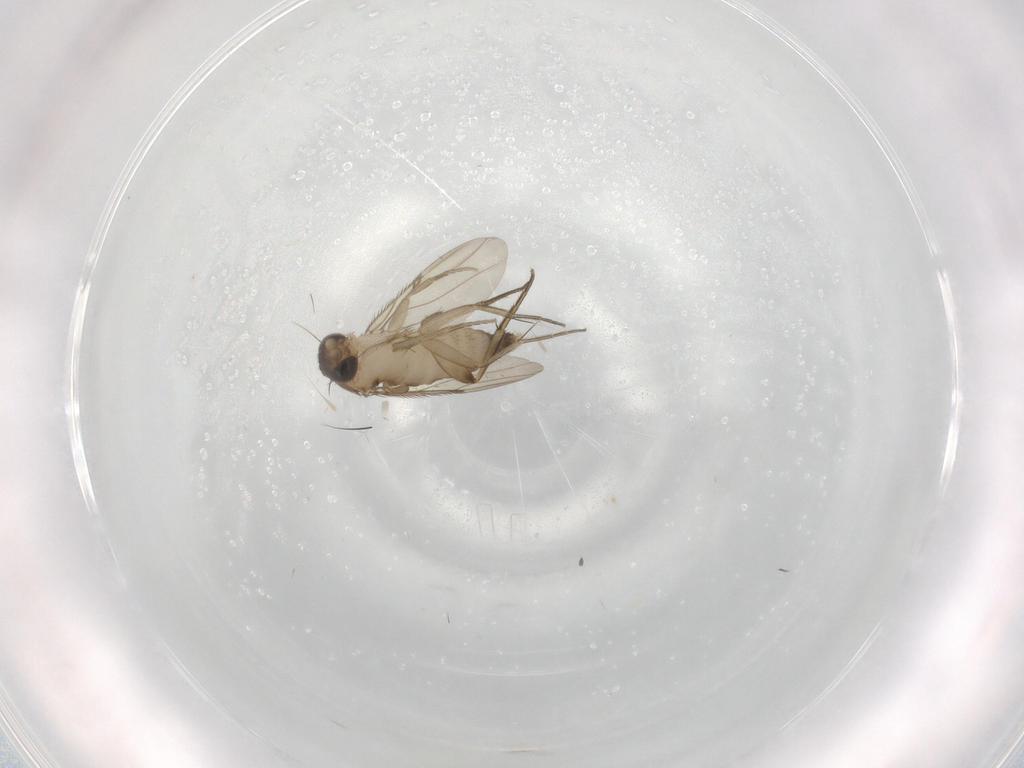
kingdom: Animalia
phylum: Arthropoda
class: Insecta
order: Diptera
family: Phoridae
